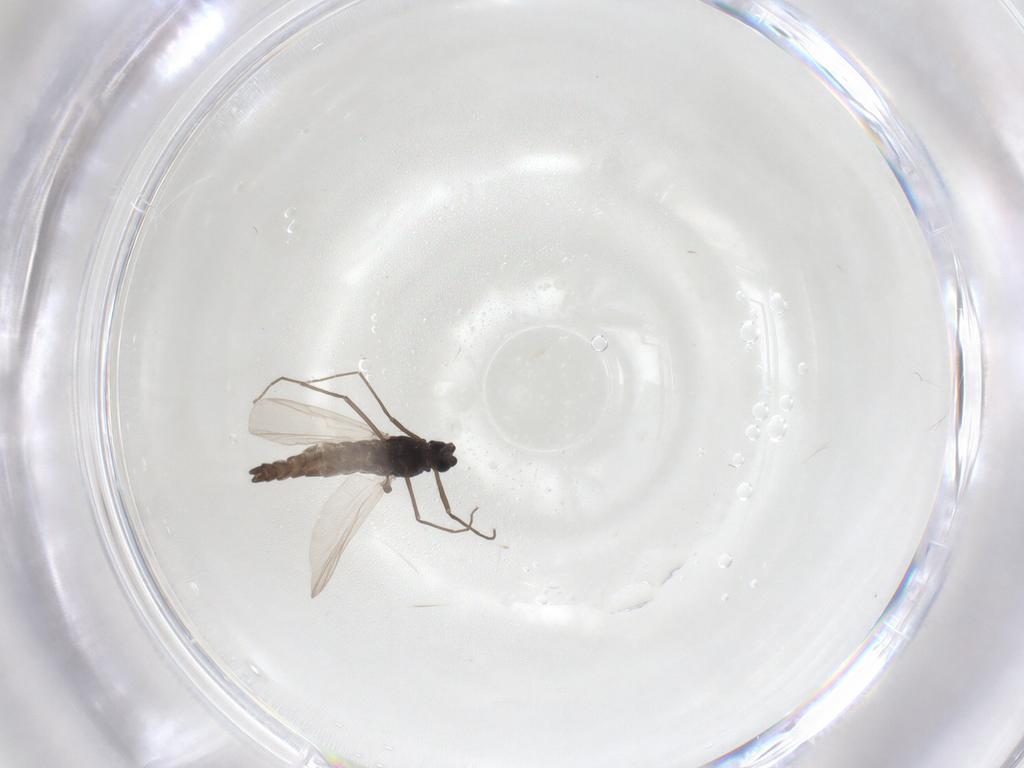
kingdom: Animalia
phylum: Arthropoda
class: Insecta
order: Diptera
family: Chironomidae
